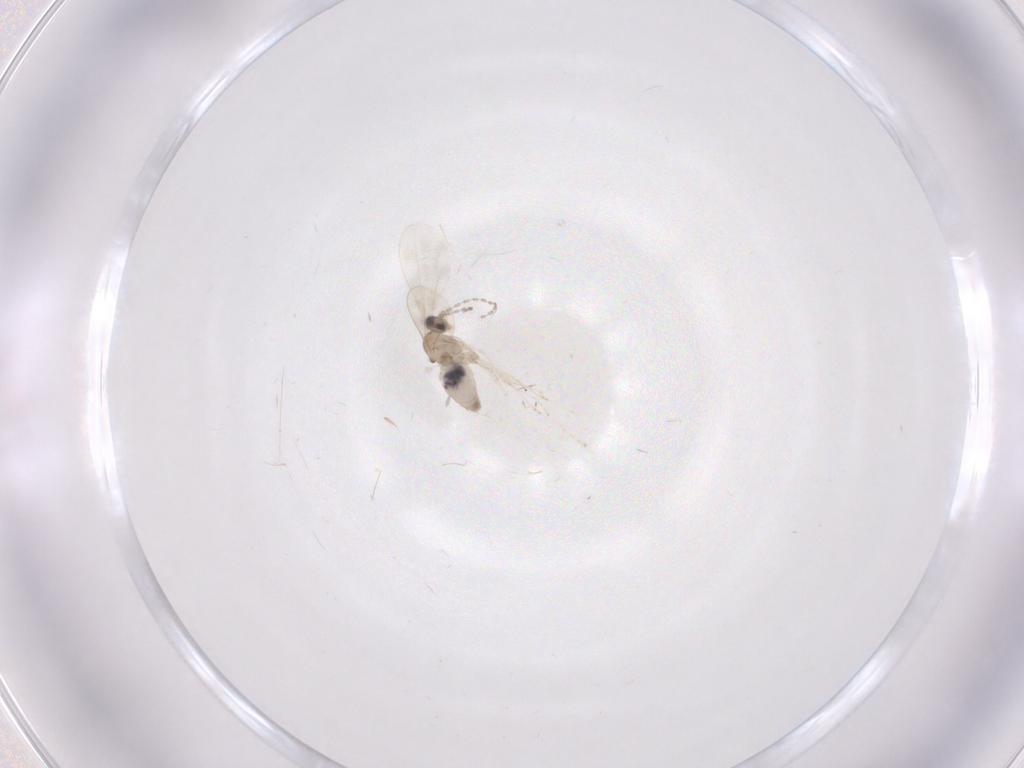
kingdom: Animalia
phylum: Arthropoda
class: Insecta
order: Diptera
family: Cecidomyiidae
